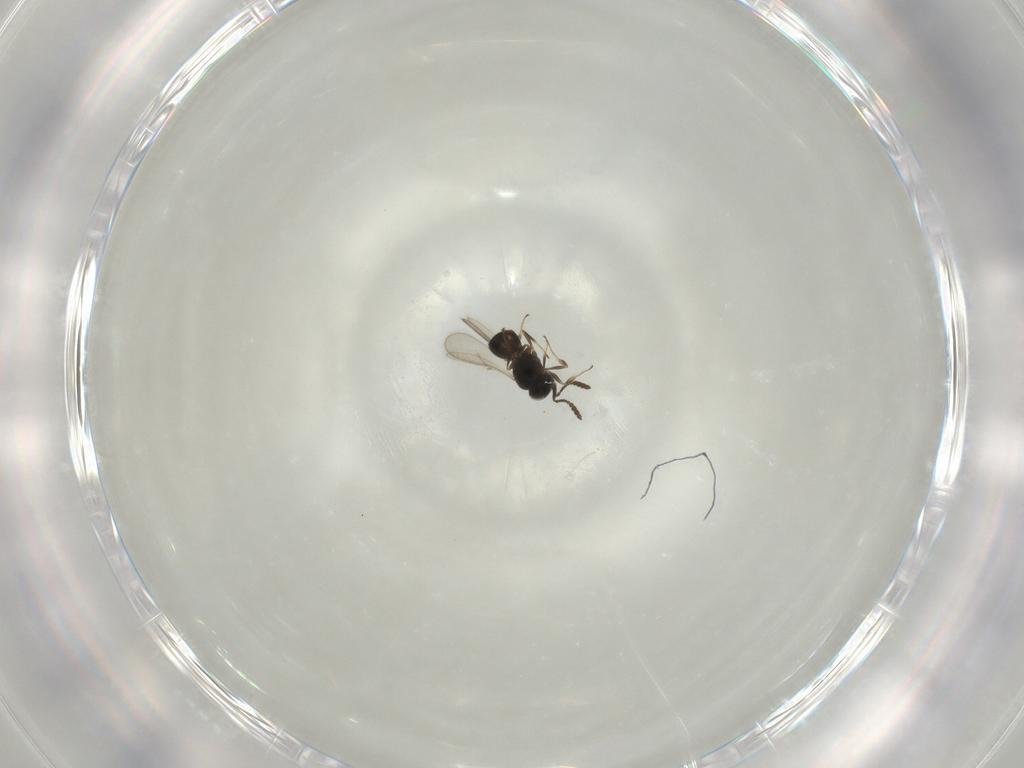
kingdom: Animalia
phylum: Arthropoda
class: Insecta
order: Hymenoptera
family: Scelionidae
